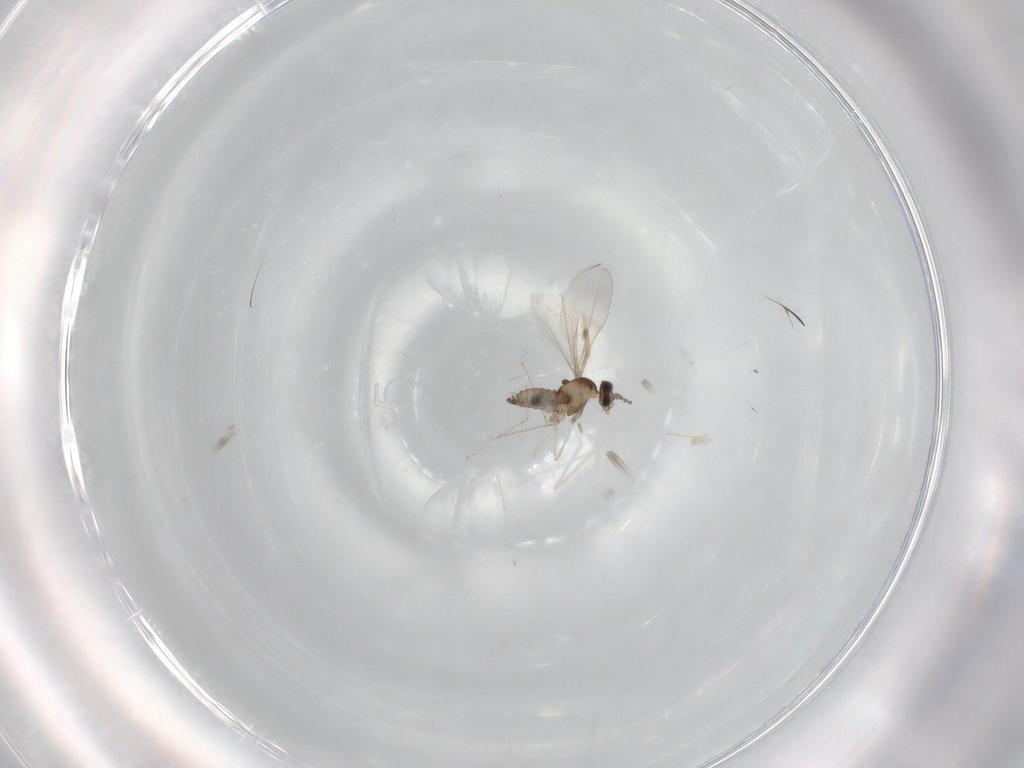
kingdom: Animalia
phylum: Arthropoda
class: Insecta
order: Diptera
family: Cecidomyiidae
